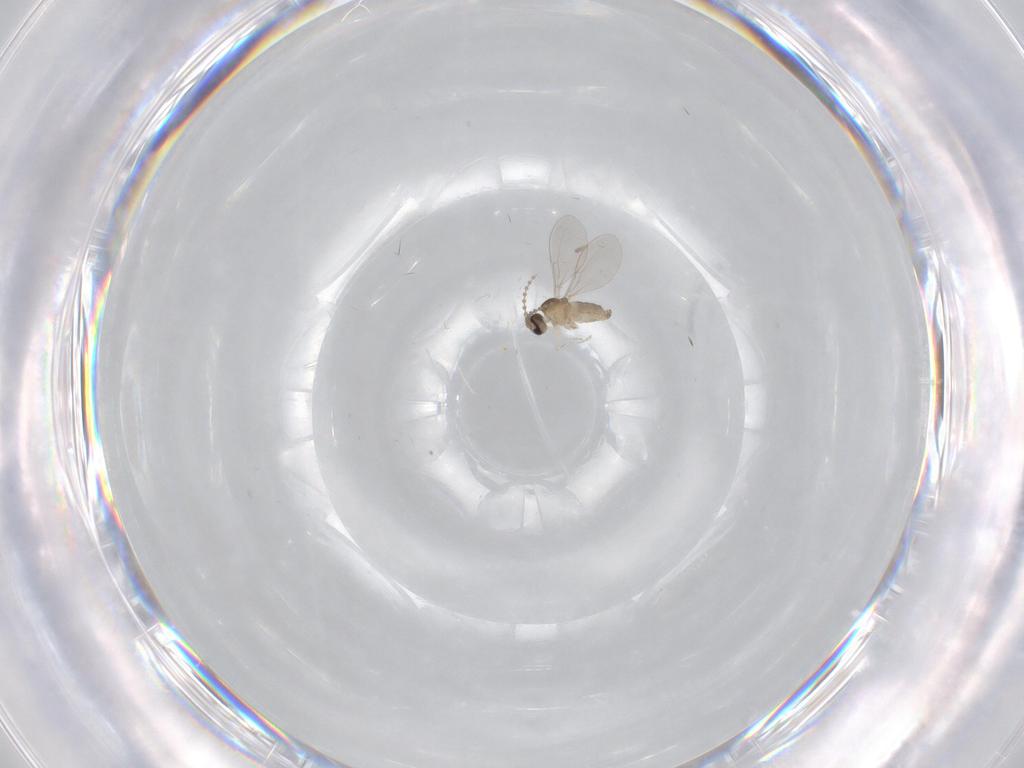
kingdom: Animalia
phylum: Arthropoda
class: Insecta
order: Diptera
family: Cecidomyiidae
